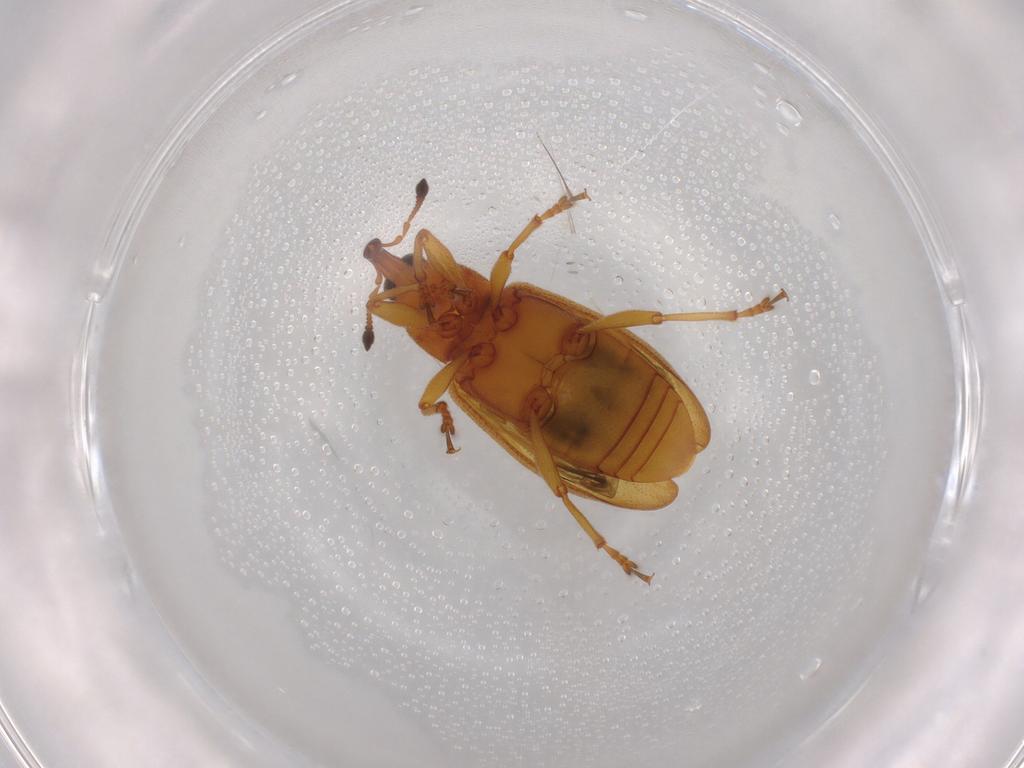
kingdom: Animalia
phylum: Arthropoda
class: Insecta
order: Coleoptera
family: Curculionidae
